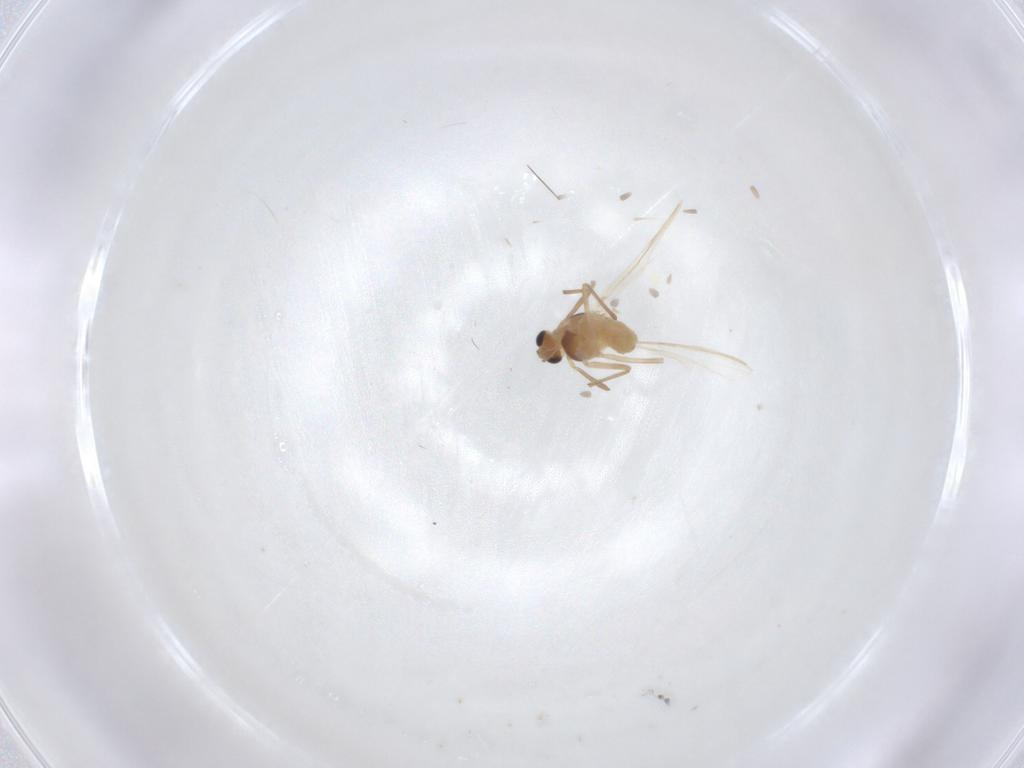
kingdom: Animalia
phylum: Arthropoda
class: Insecta
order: Diptera
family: Chironomidae
